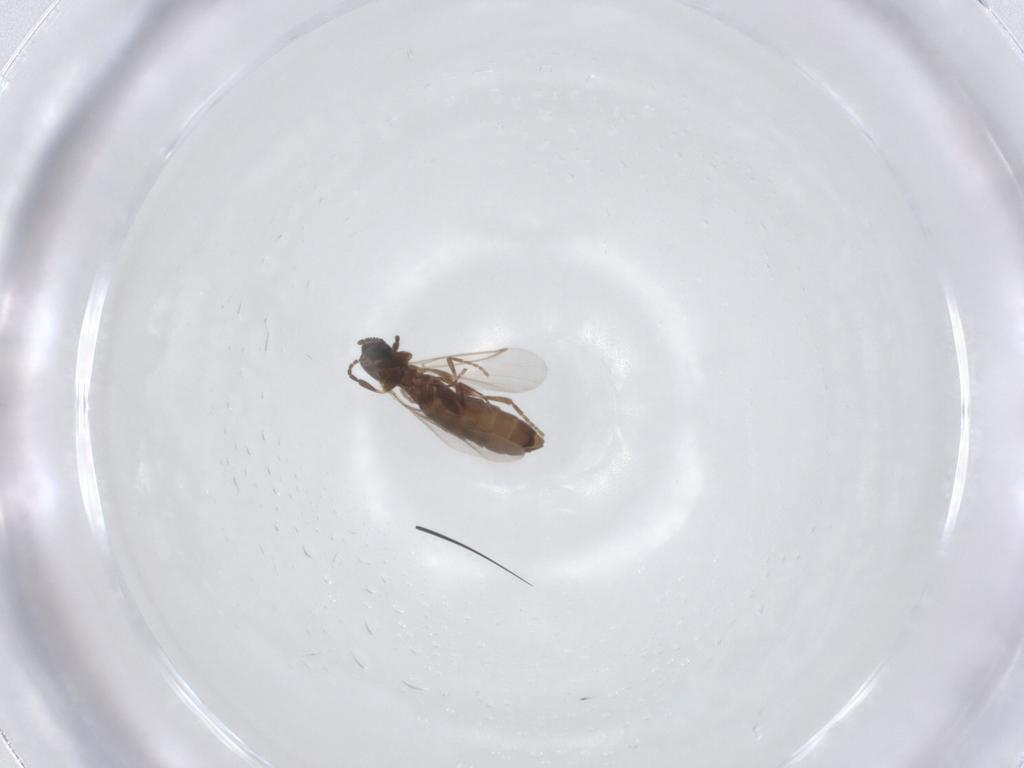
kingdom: Animalia
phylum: Arthropoda
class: Insecta
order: Diptera
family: Scatopsidae
